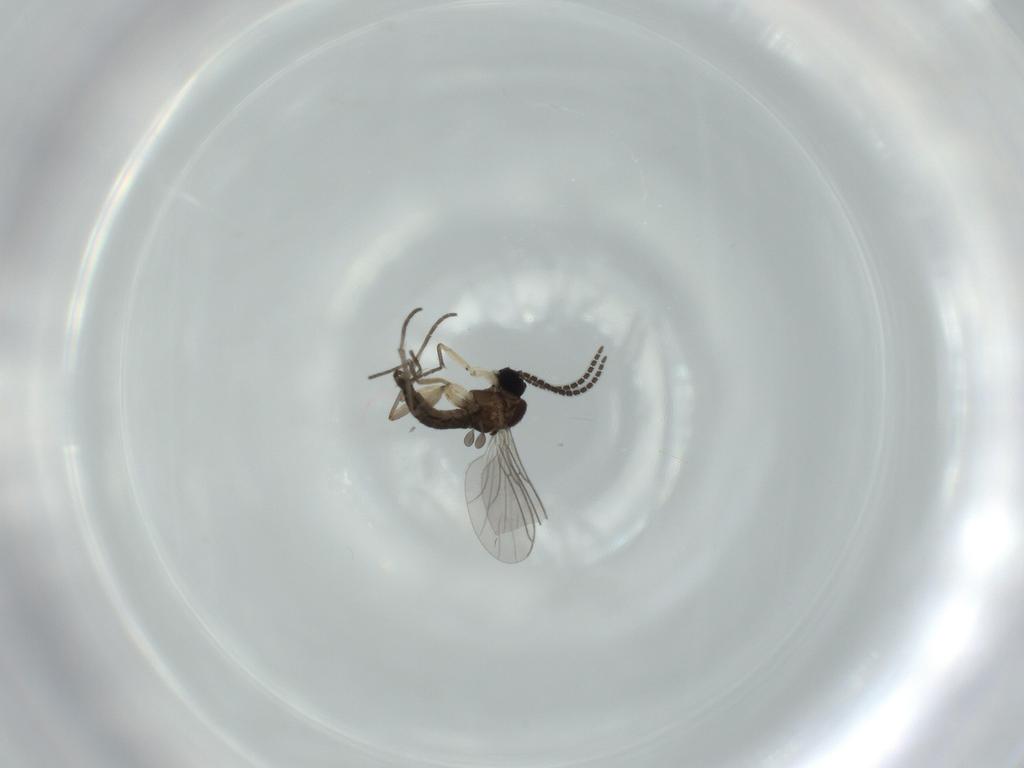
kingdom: Animalia
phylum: Arthropoda
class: Insecta
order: Diptera
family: Sciaridae
